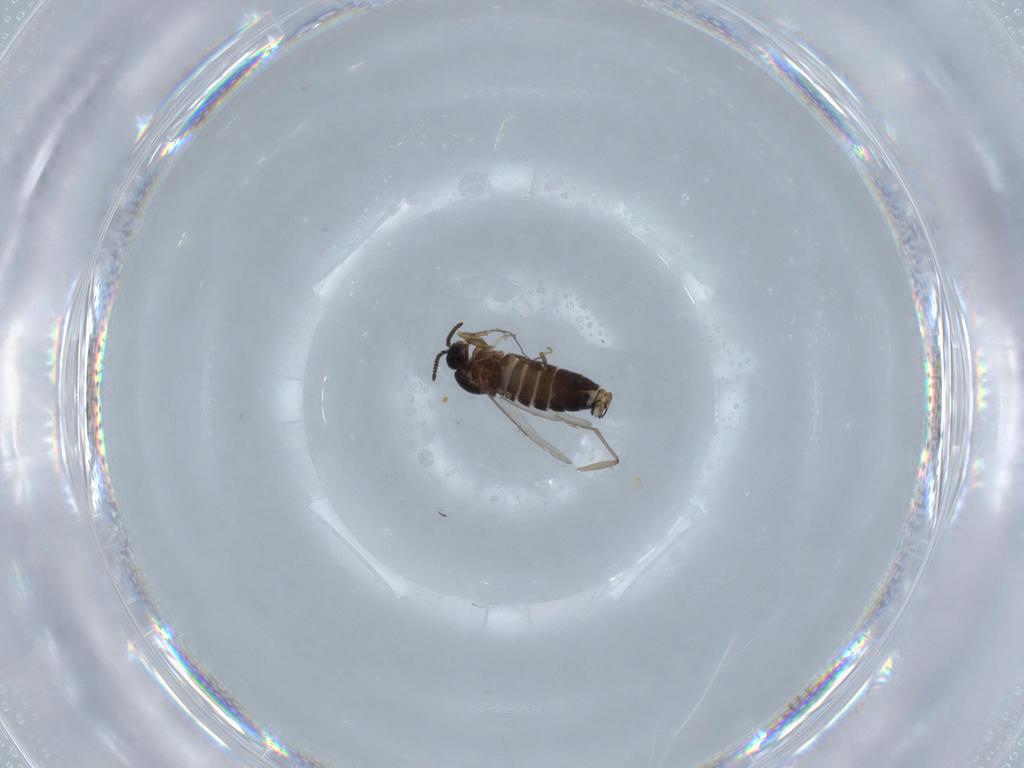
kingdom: Animalia
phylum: Arthropoda
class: Insecta
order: Diptera
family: Scatopsidae
